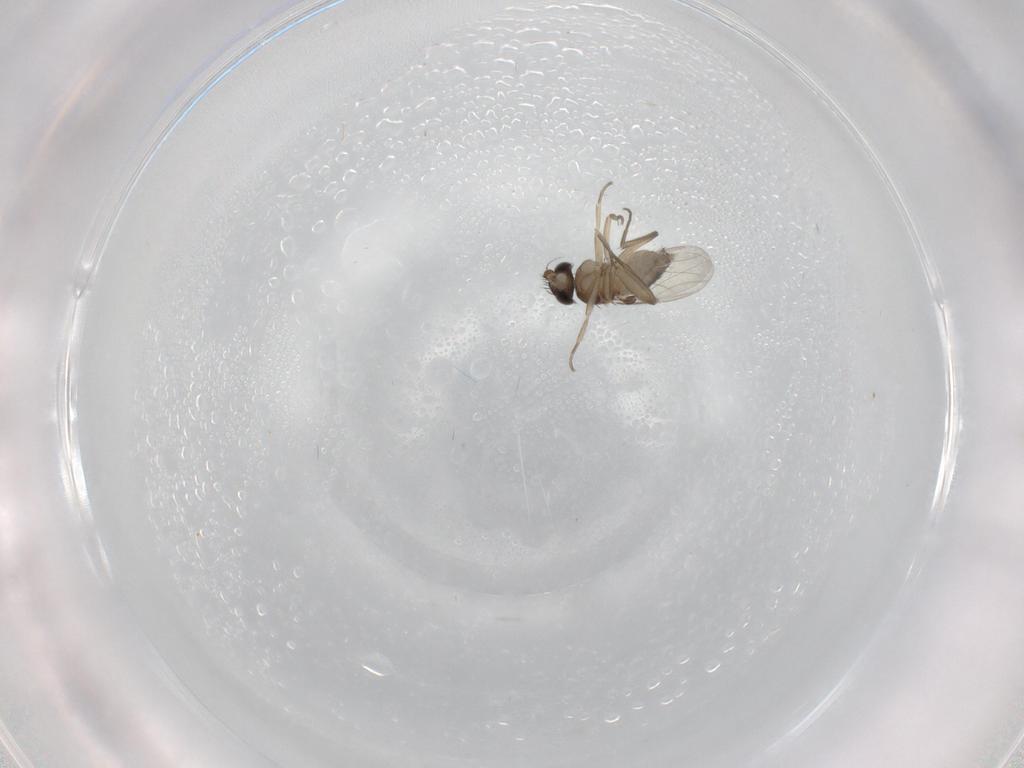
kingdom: Animalia
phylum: Arthropoda
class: Insecta
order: Diptera
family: Phoridae
